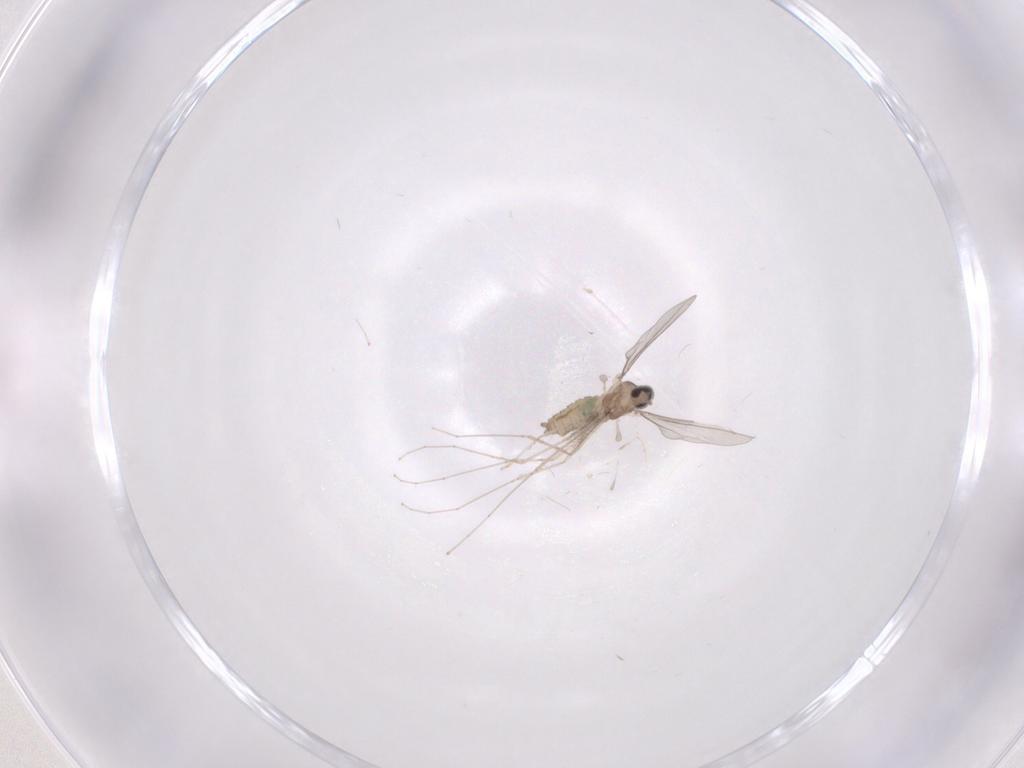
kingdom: Animalia
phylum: Arthropoda
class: Insecta
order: Diptera
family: Cecidomyiidae
